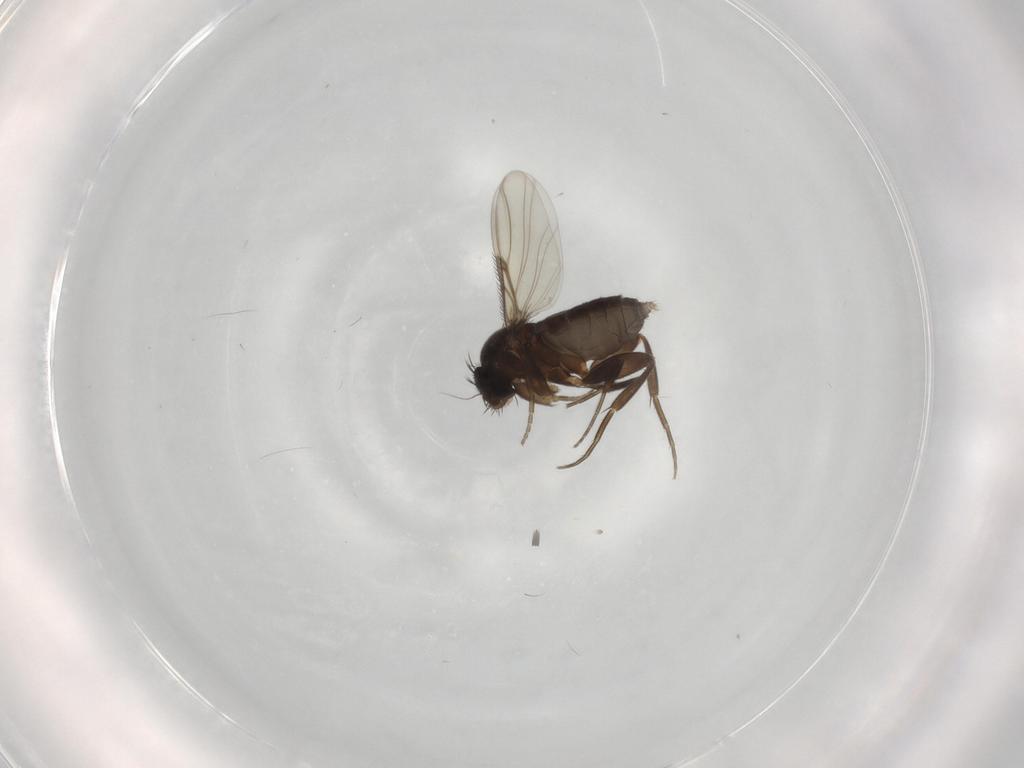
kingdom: Animalia
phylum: Arthropoda
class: Insecta
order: Diptera
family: Phoridae
